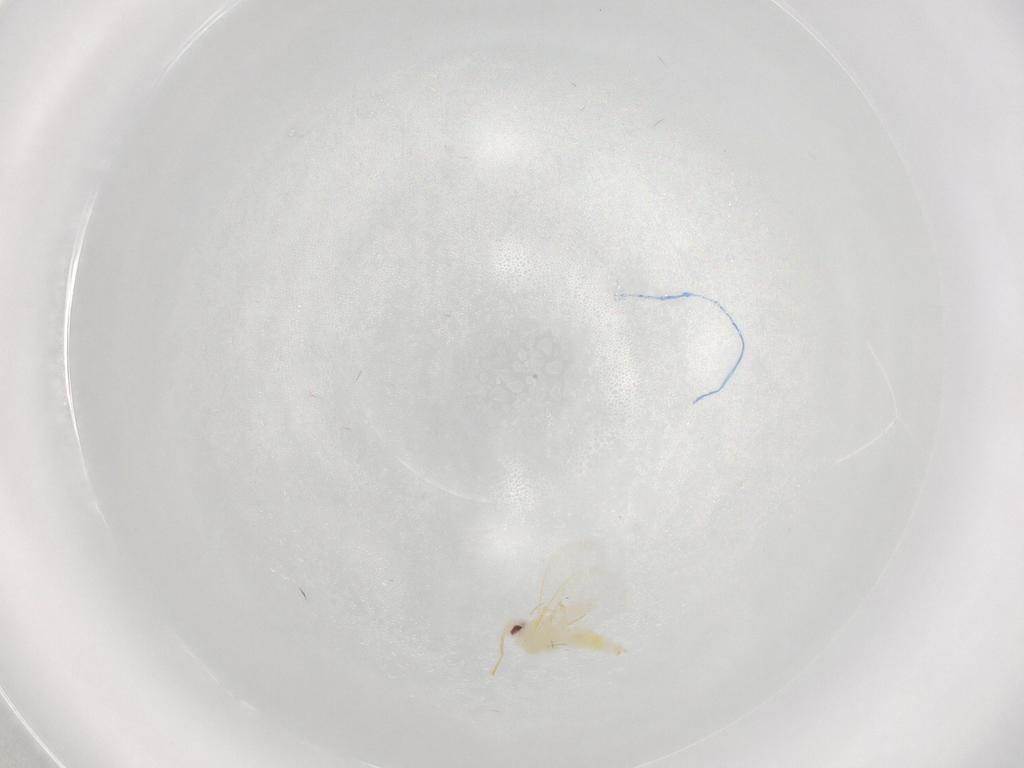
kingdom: Animalia
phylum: Arthropoda
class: Insecta
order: Hemiptera
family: Aleyrodidae
